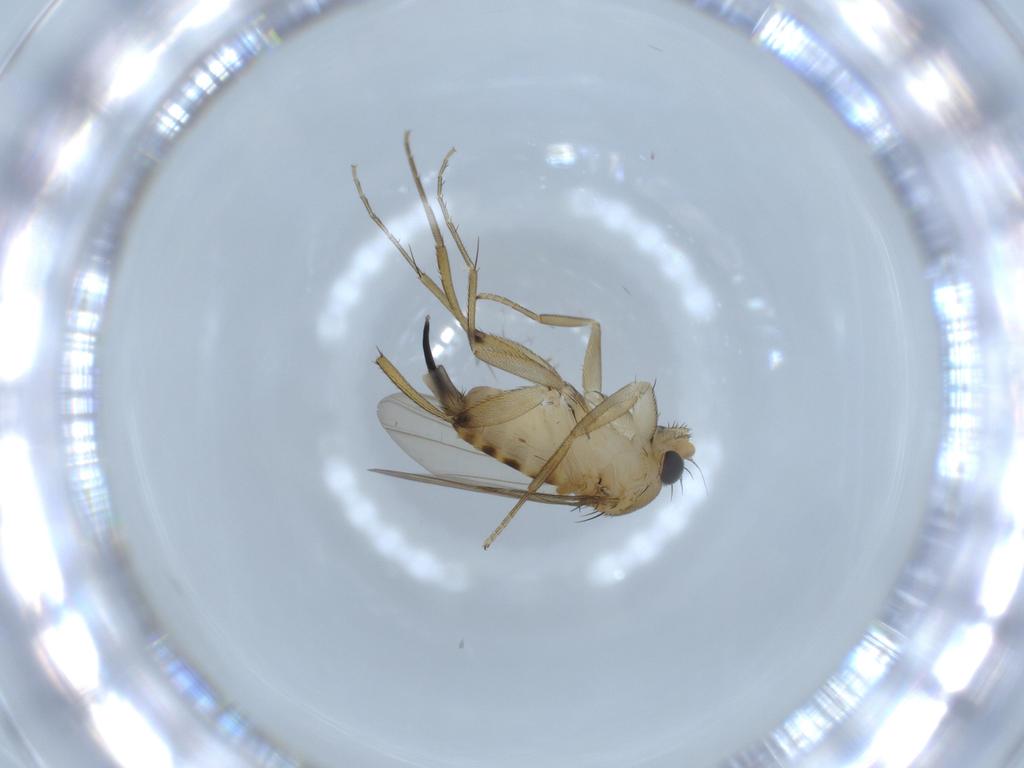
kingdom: Animalia
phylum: Arthropoda
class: Insecta
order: Diptera
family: Phoridae
